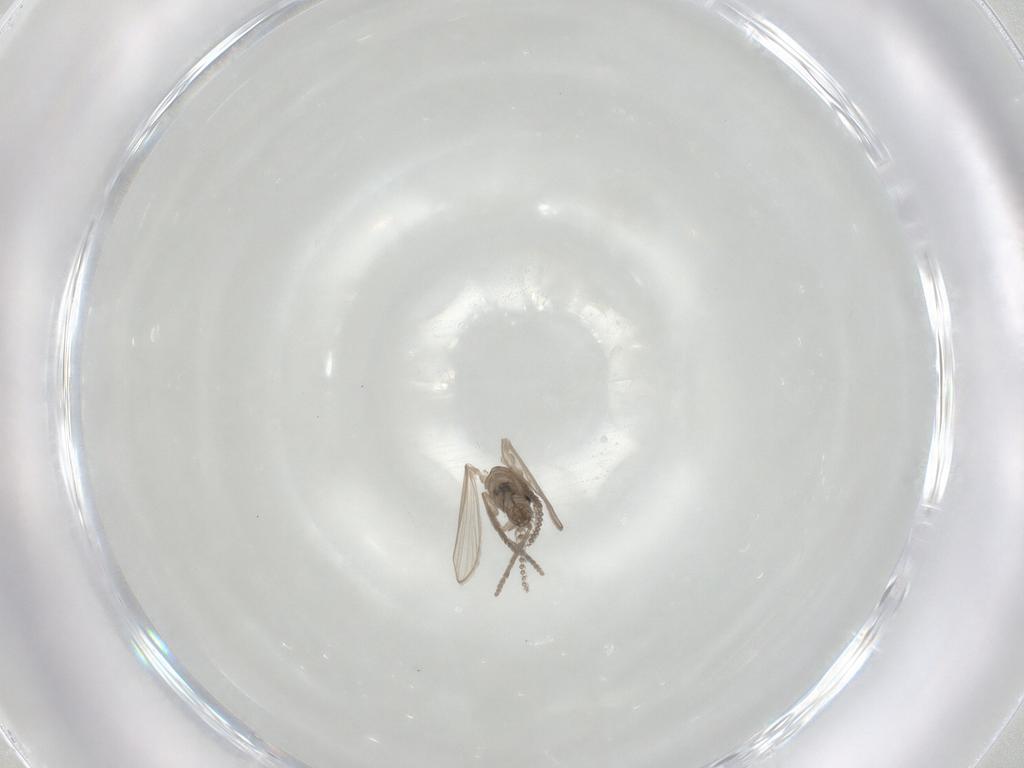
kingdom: Animalia
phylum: Arthropoda
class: Insecta
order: Diptera
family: Psychodidae
